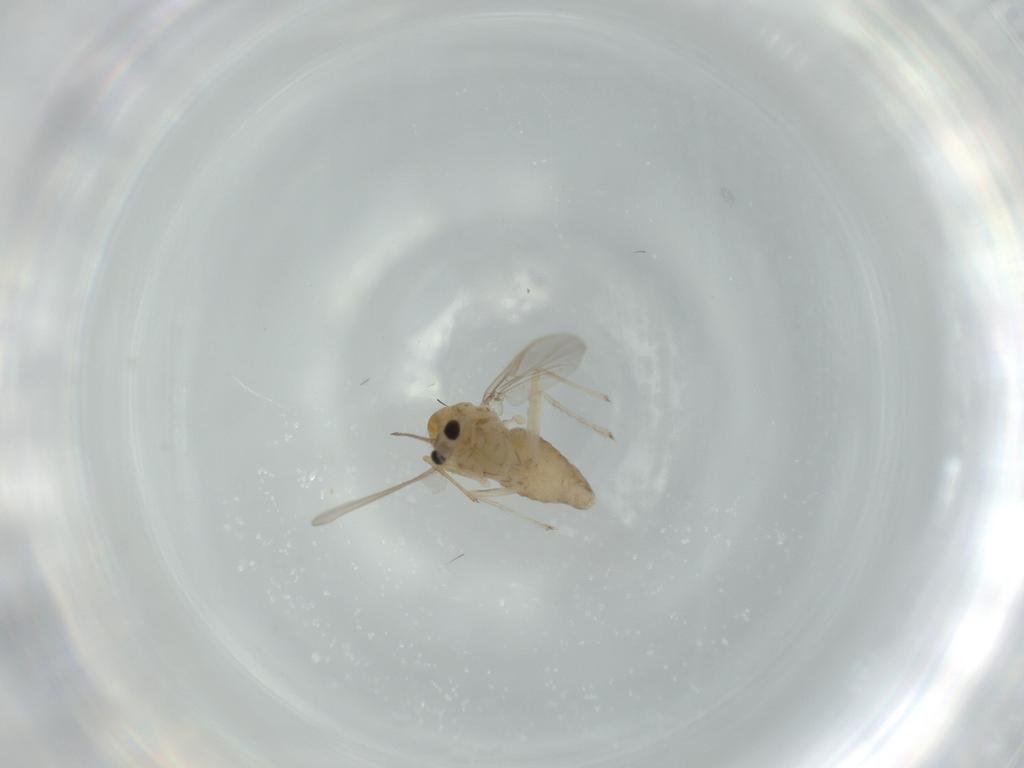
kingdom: Animalia
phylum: Arthropoda
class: Insecta
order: Diptera
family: Chironomidae
